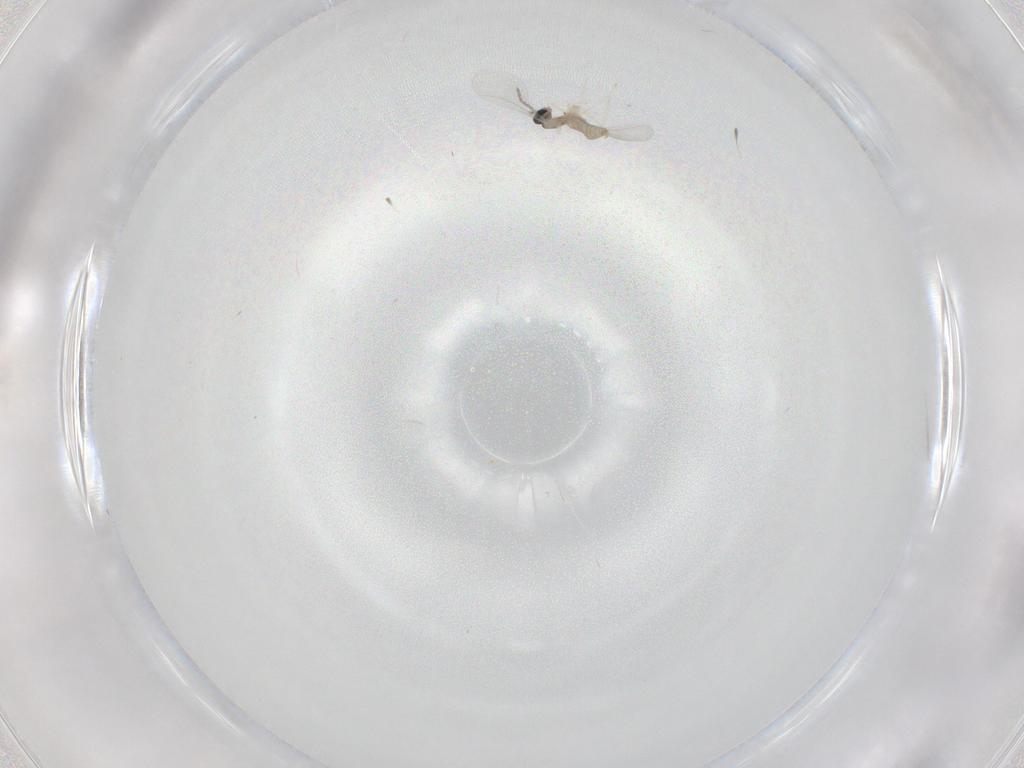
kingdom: Animalia
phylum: Arthropoda
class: Insecta
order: Diptera
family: Cecidomyiidae
